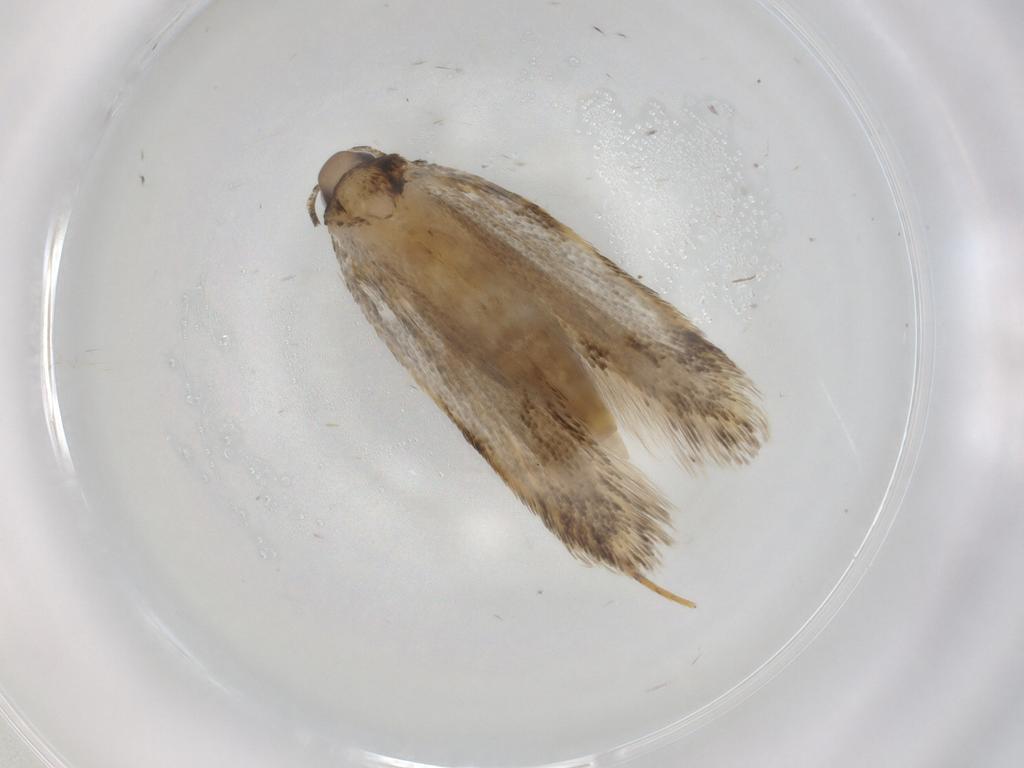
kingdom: Animalia
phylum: Arthropoda
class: Insecta
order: Lepidoptera
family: Autostichidae
